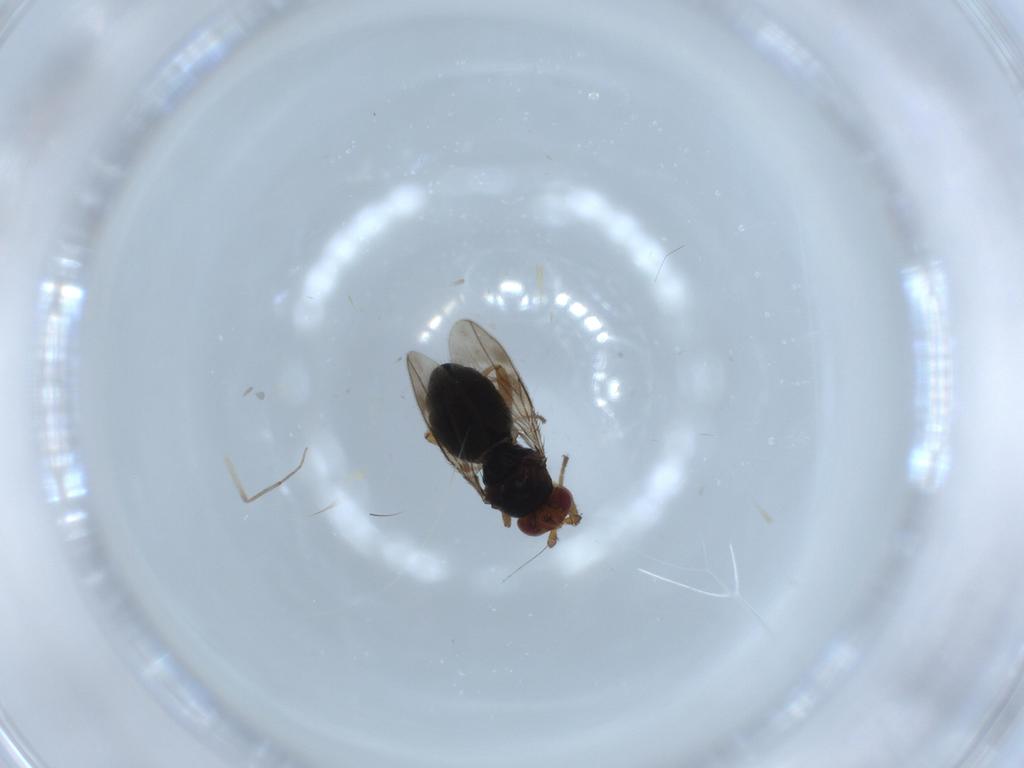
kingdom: Animalia
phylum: Arthropoda
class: Insecta
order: Diptera
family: Sphaeroceridae
